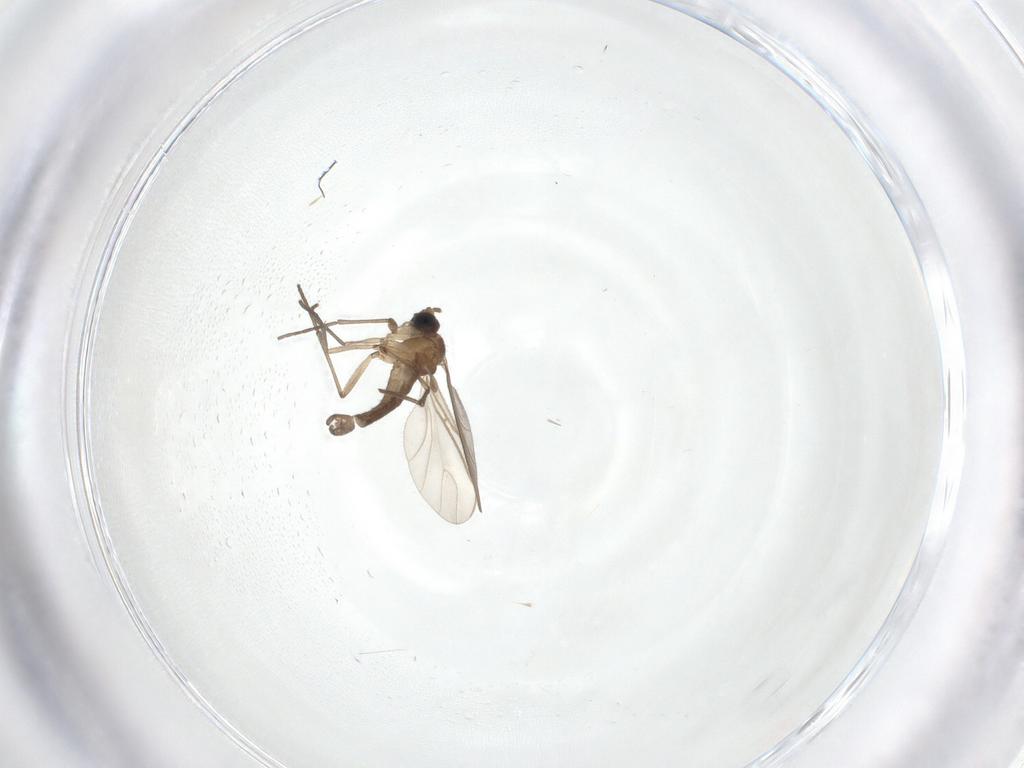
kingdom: Animalia
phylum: Arthropoda
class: Insecta
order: Diptera
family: Sciaridae
